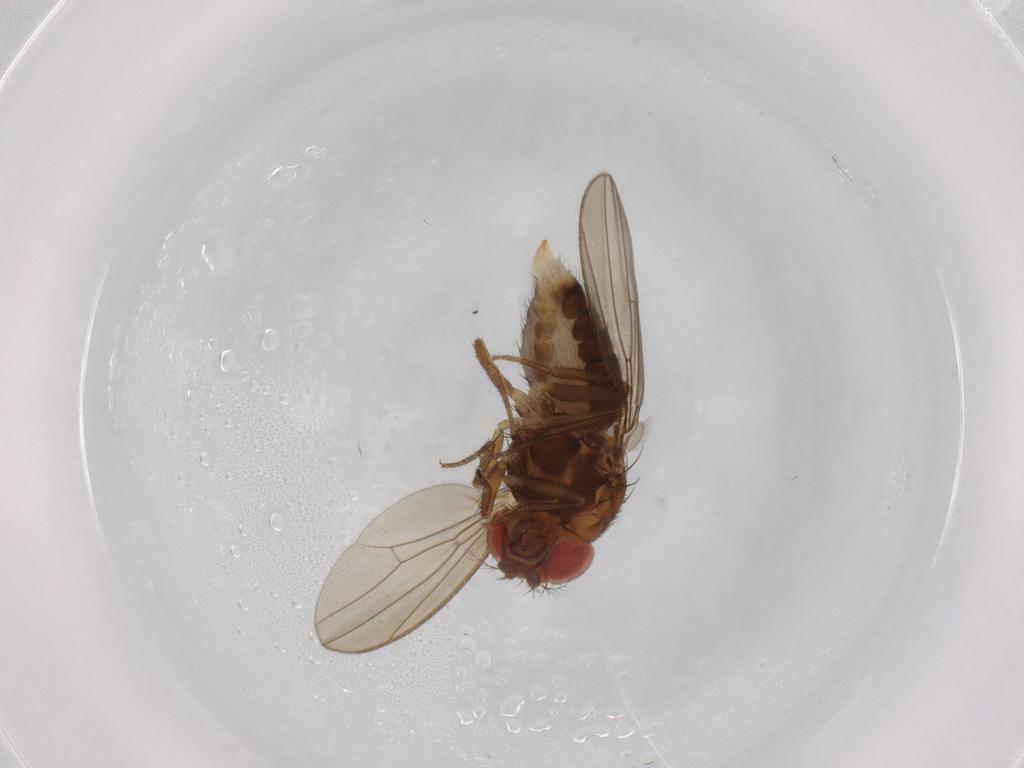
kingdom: Animalia
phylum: Arthropoda
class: Insecta
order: Diptera
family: Drosophilidae
